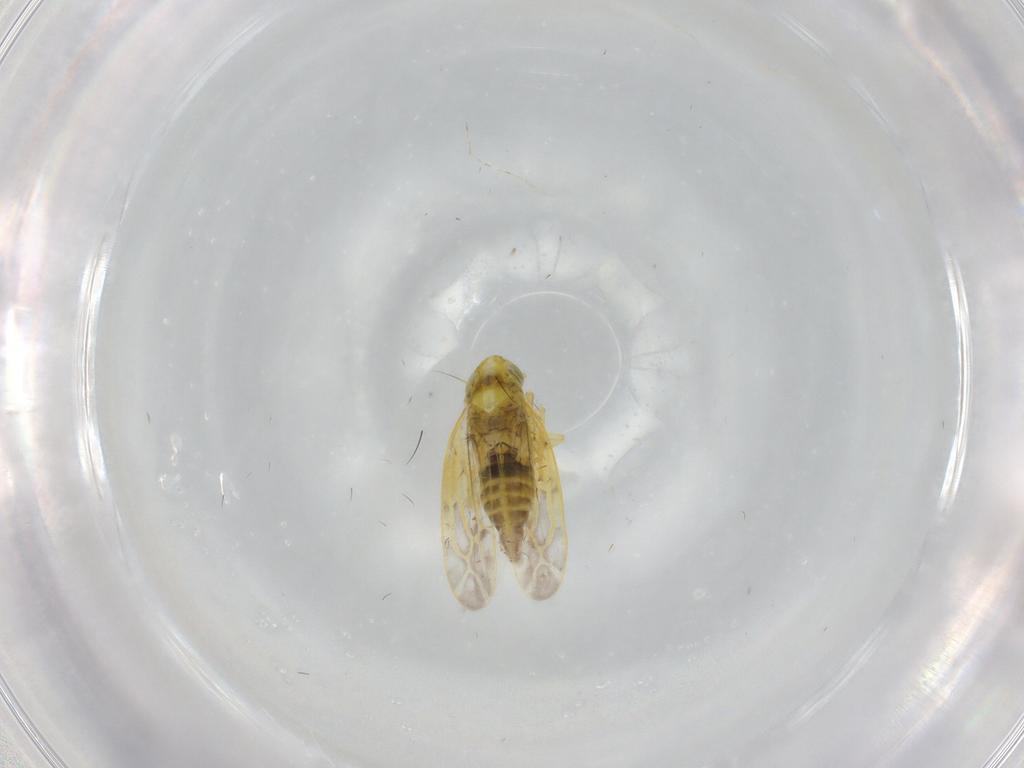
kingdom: Animalia
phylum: Arthropoda
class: Insecta
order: Hemiptera
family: Cicadellidae
